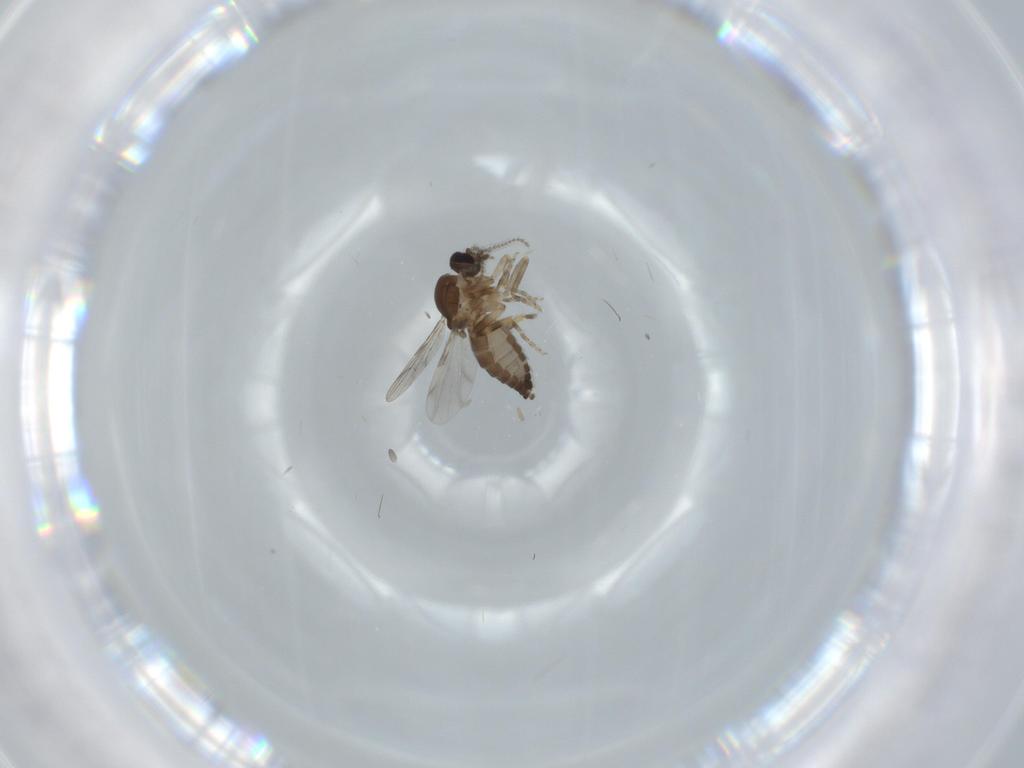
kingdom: Animalia
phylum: Arthropoda
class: Insecta
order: Diptera
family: Ceratopogonidae
